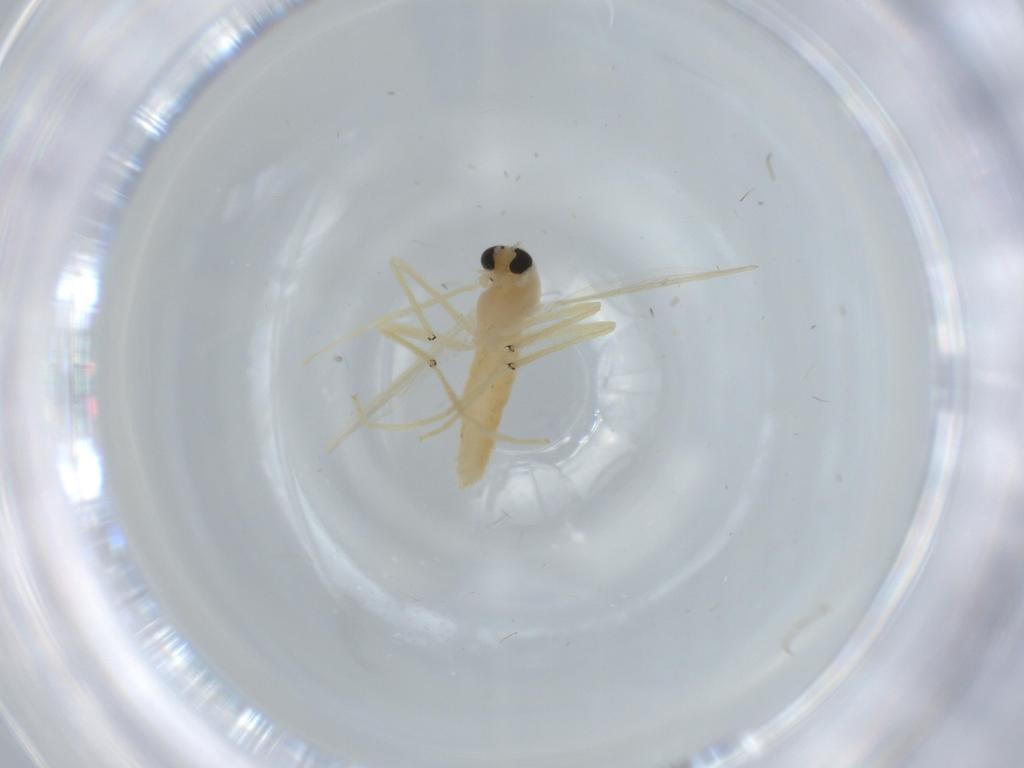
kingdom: Animalia
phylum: Arthropoda
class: Insecta
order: Diptera
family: Chironomidae
